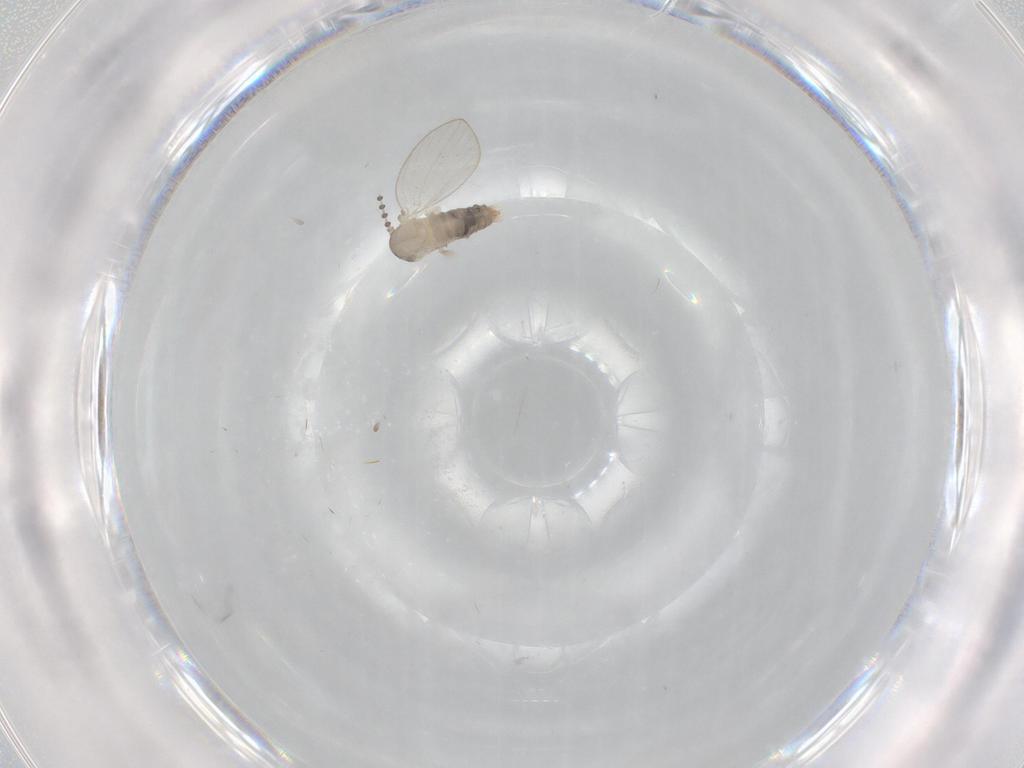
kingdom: Animalia
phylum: Arthropoda
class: Insecta
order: Diptera
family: Psychodidae
